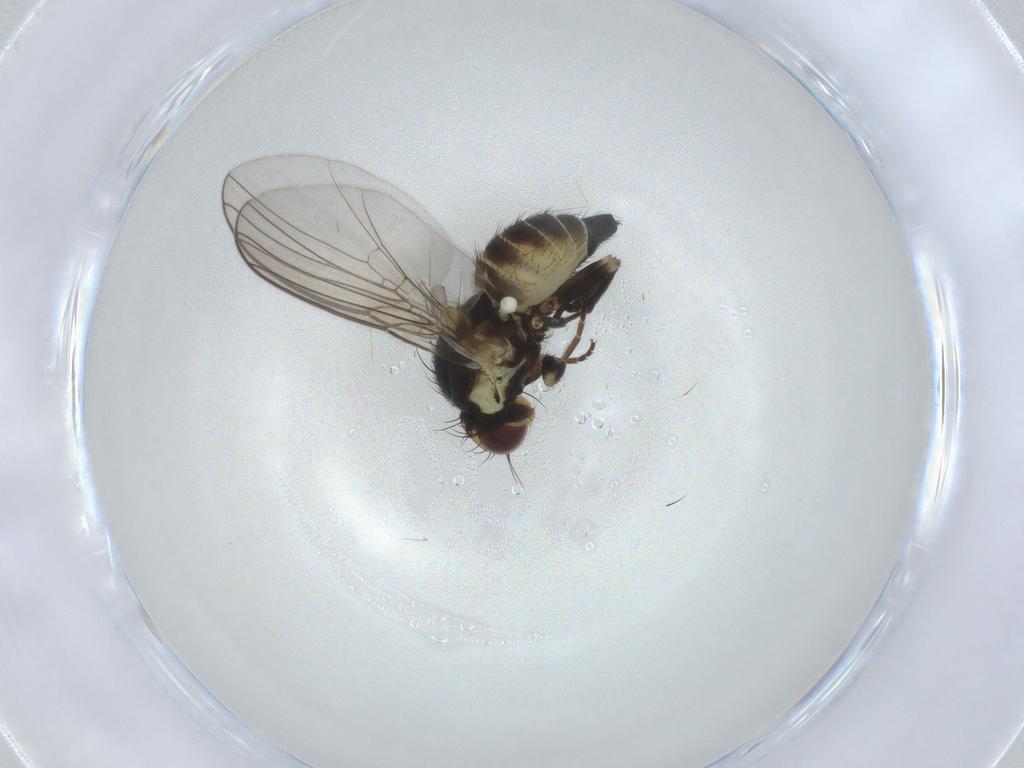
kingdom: Animalia
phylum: Arthropoda
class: Insecta
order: Diptera
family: Agromyzidae
